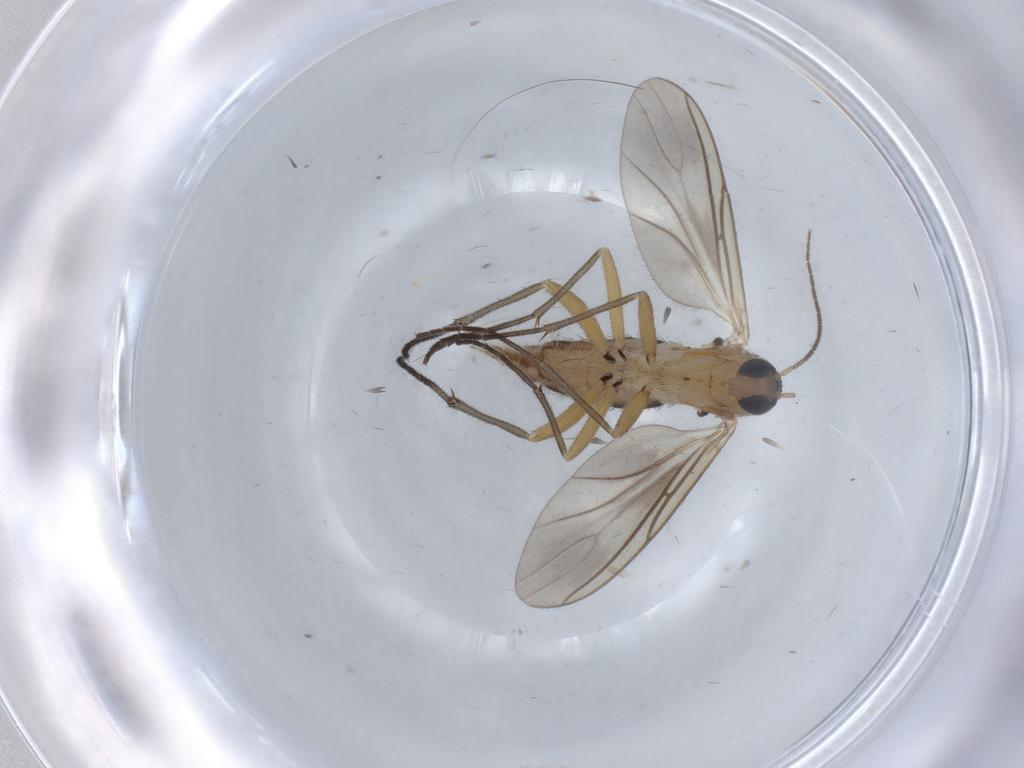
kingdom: Animalia
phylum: Arthropoda
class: Insecta
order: Diptera
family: Sciaridae
